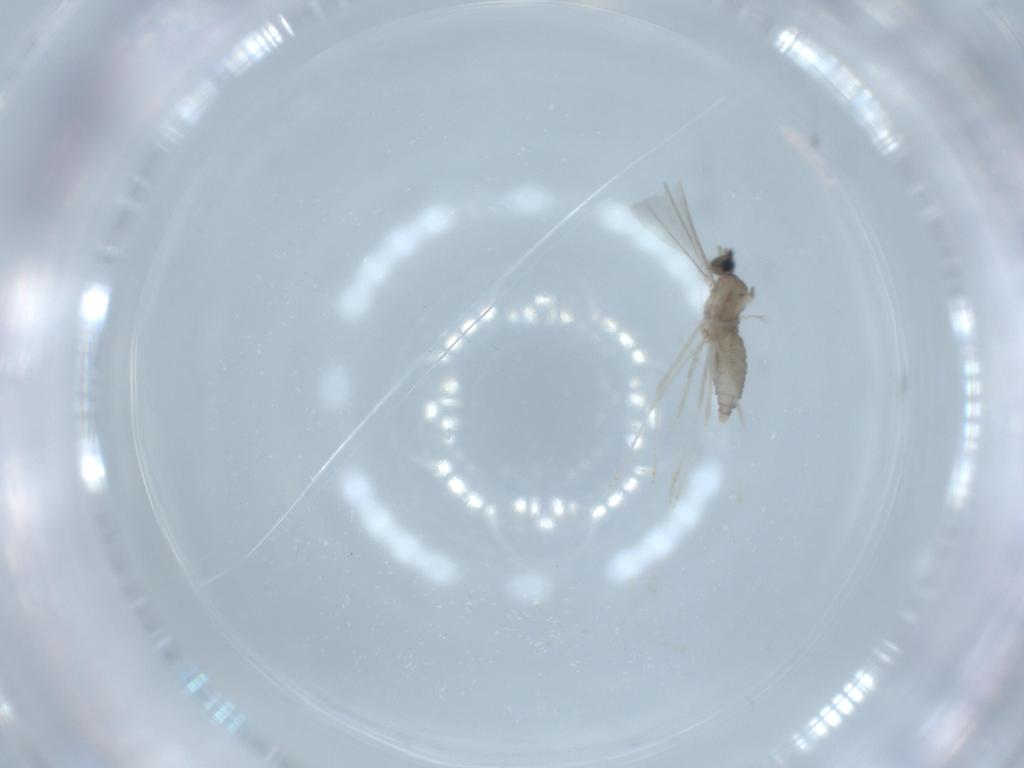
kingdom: Animalia
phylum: Arthropoda
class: Insecta
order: Diptera
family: Cecidomyiidae
